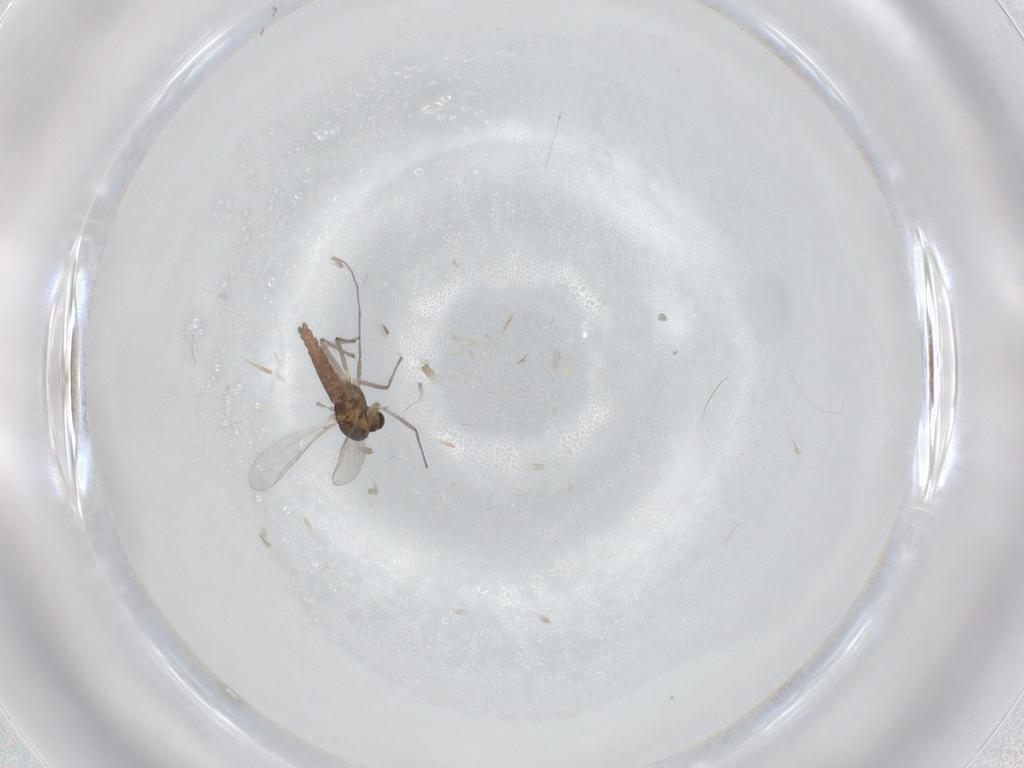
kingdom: Animalia
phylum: Arthropoda
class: Insecta
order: Diptera
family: Chironomidae
